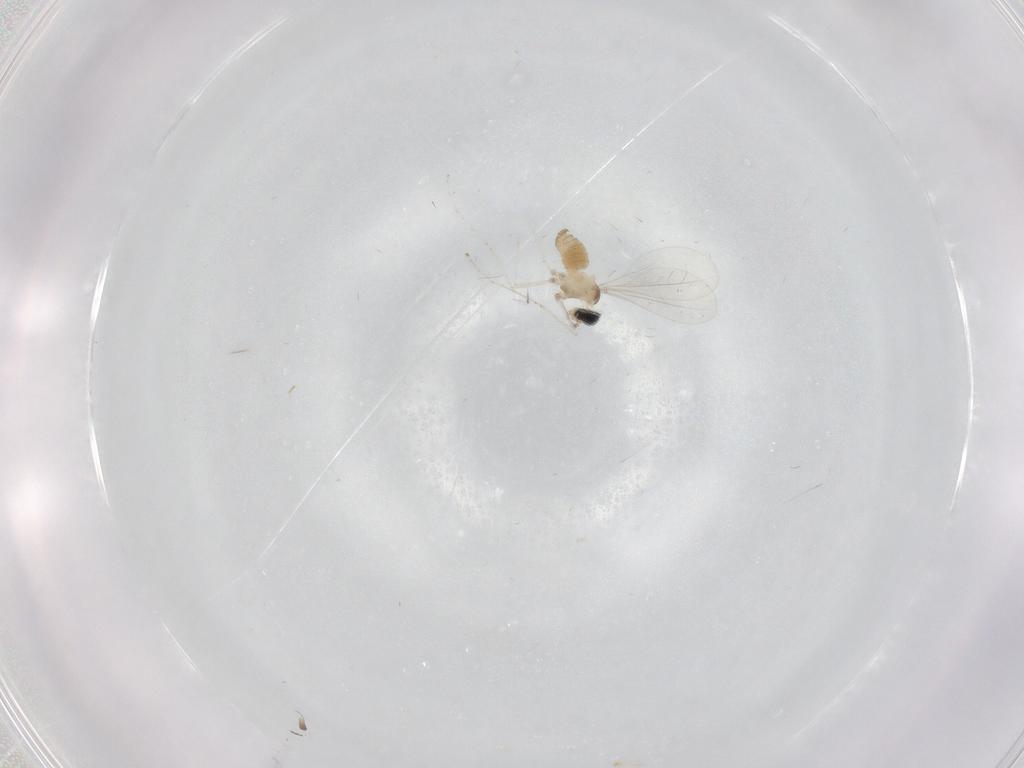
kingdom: Animalia
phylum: Arthropoda
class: Insecta
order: Diptera
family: Cecidomyiidae
